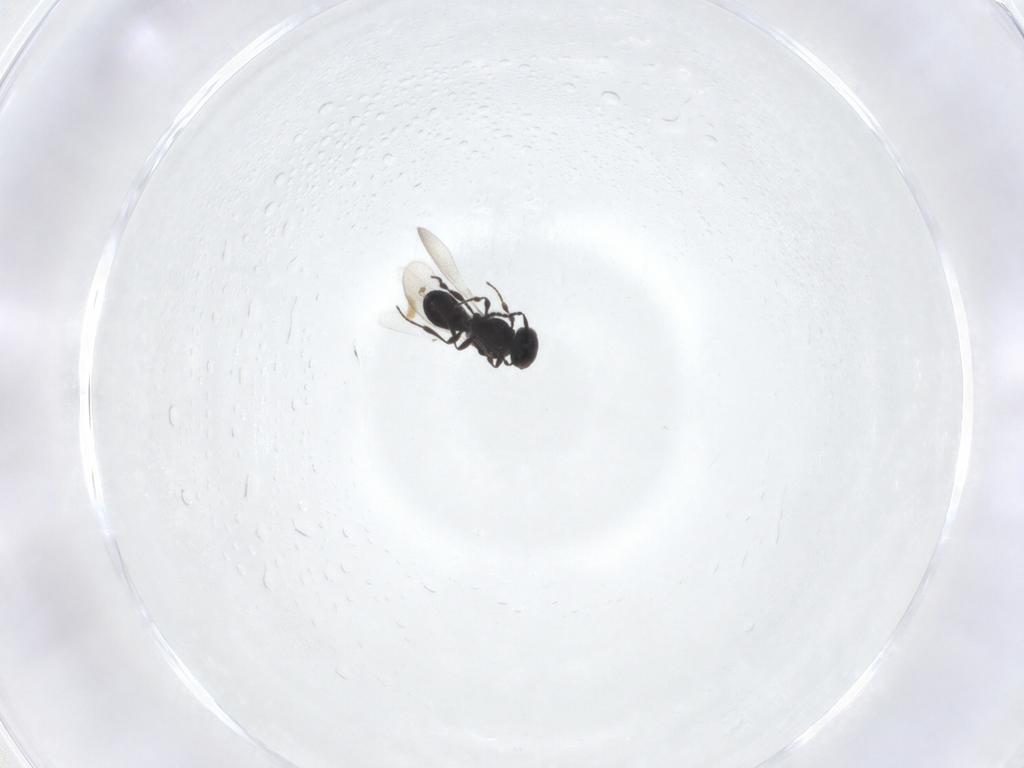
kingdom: Animalia
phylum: Arthropoda
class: Insecta
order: Hymenoptera
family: Platygastridae
